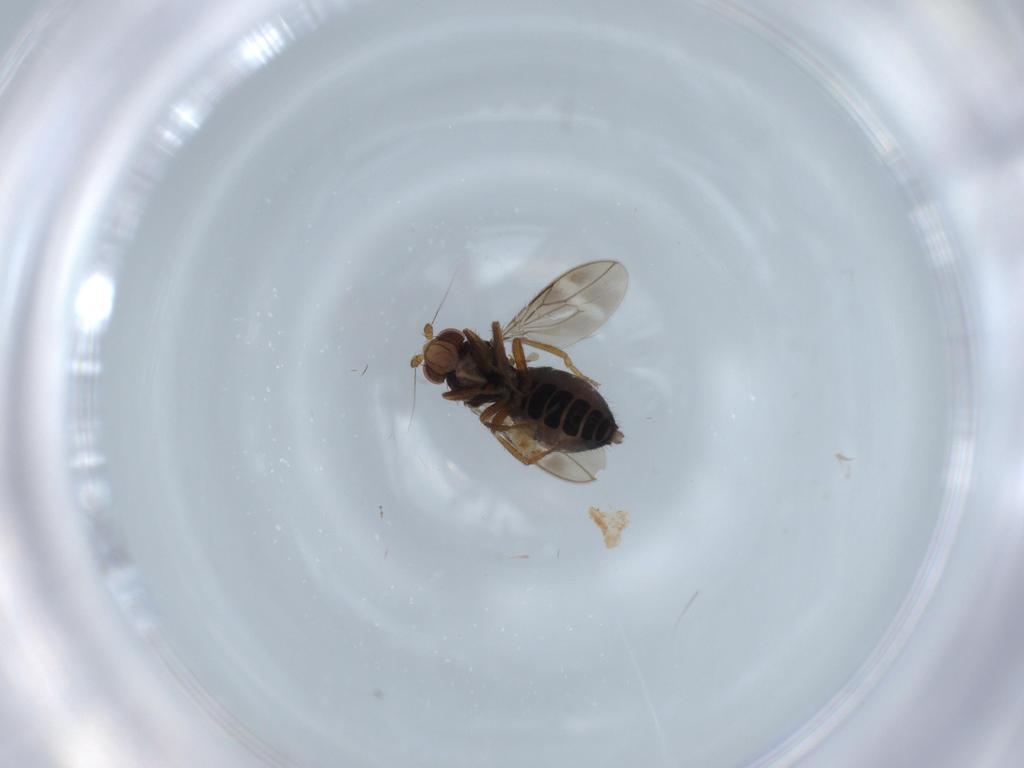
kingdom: Animalia
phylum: Arthropoda
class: Insecta
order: Diptera
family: Sphaeroceridae
